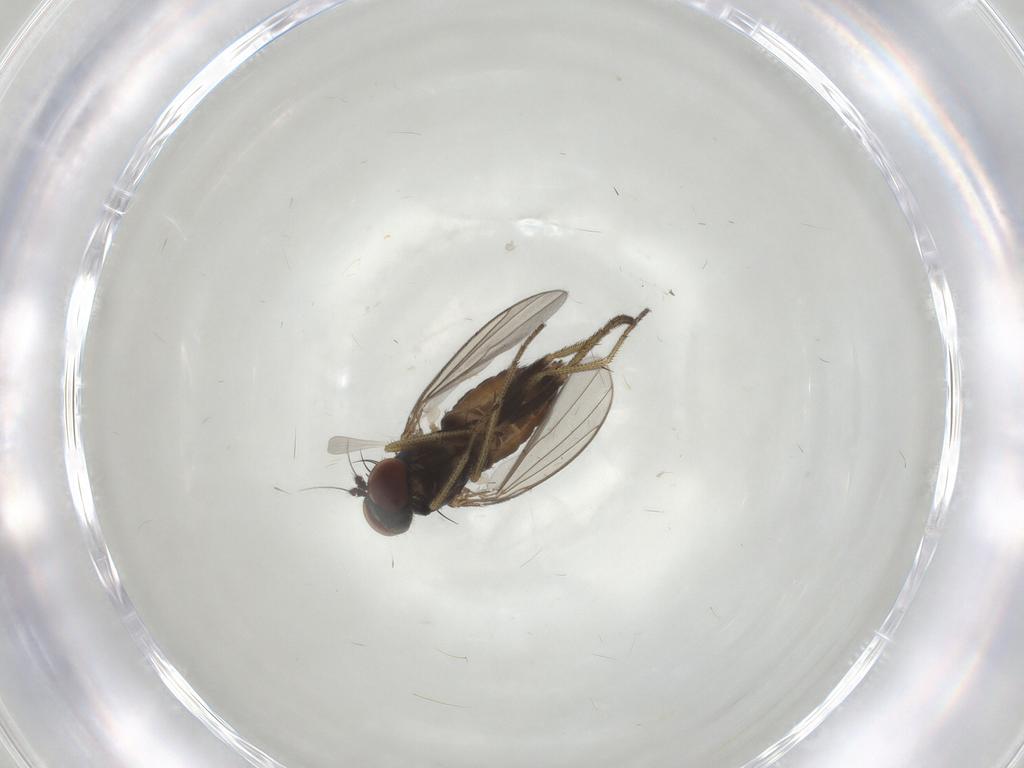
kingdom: Animalia
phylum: Arthropoda
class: Insecta
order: Diptera
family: Dolichopodidae
